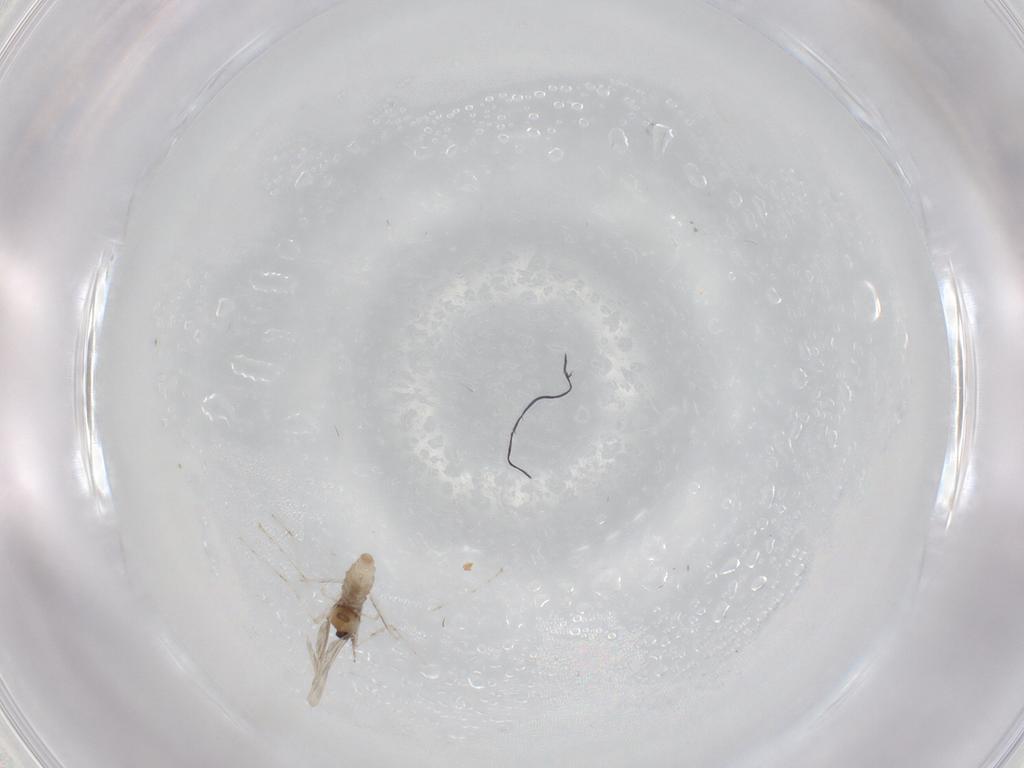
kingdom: Animalia
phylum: Arthropoda
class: Insecta
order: Diptera
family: Cecidomyiidae
